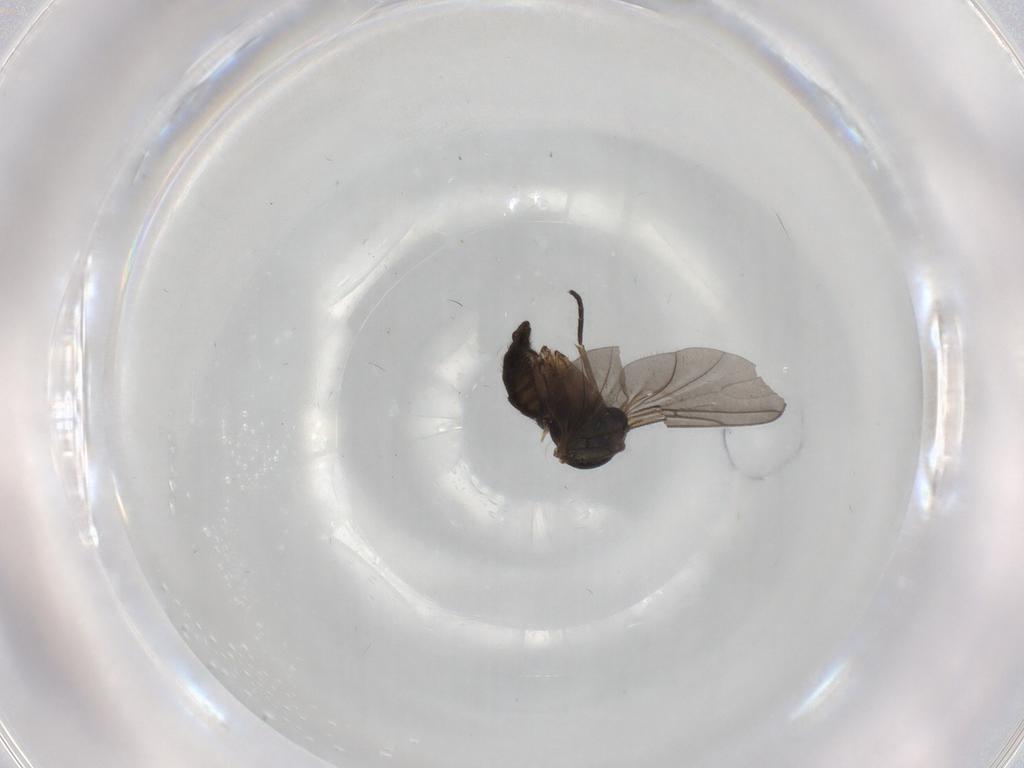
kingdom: Animalia
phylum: Arthropoda
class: Insecta
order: Diptera
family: Sciaridae
